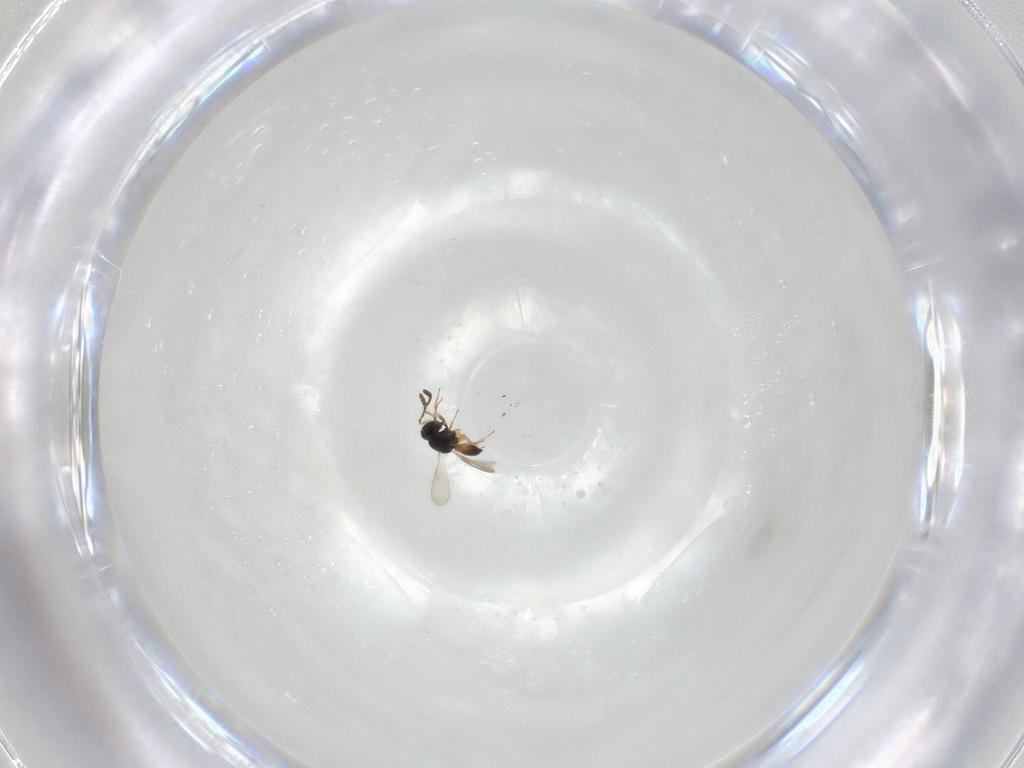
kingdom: Animalia
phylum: Arthropoda
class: Insecta
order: Hymenoptera
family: Scelionidae
